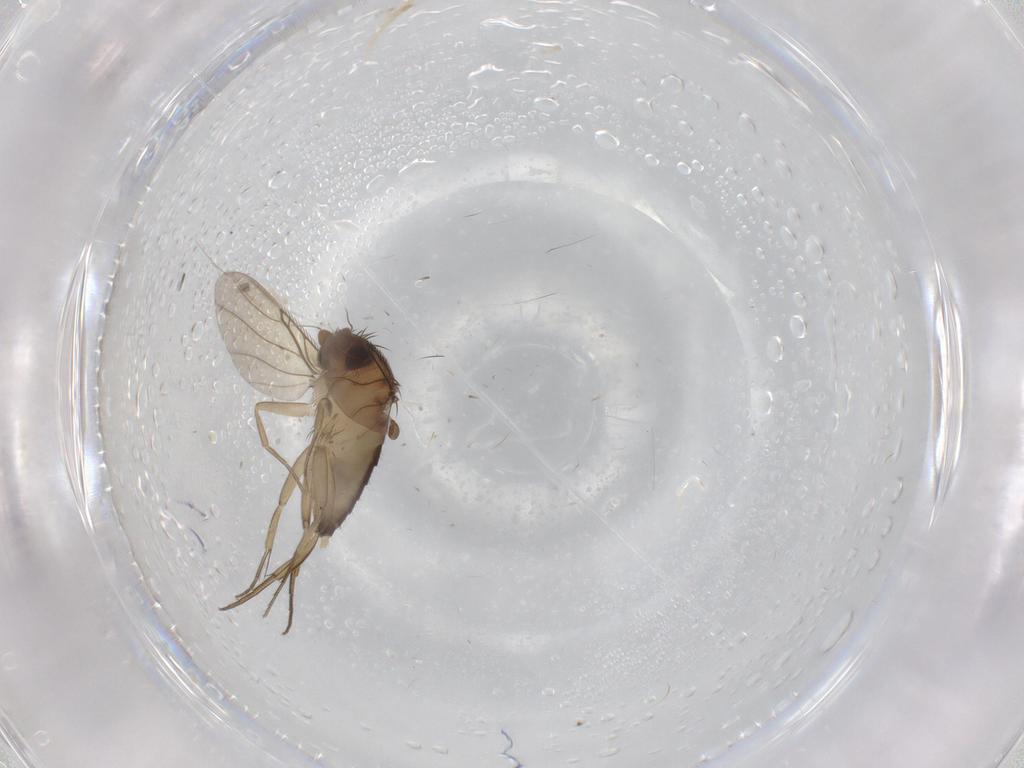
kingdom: Animalia
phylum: Arthropoda
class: Insecta
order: Diptera
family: Phoridae
